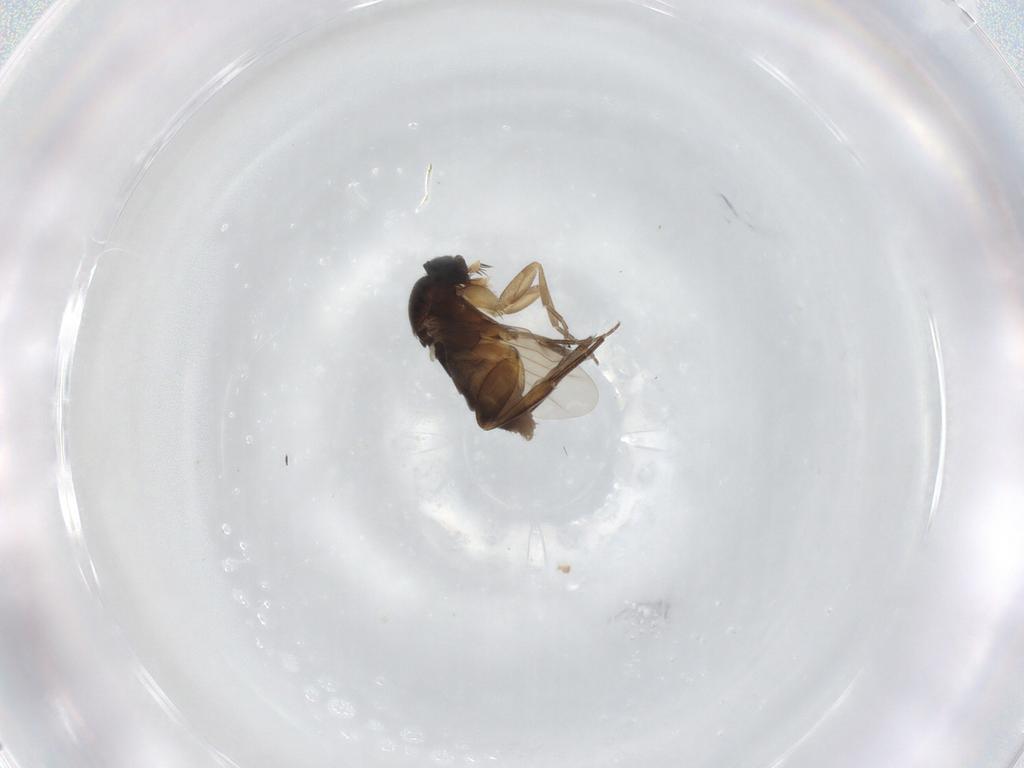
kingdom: Animalia
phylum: Arthropoda
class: Insecta
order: Diptera
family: Phoridae
